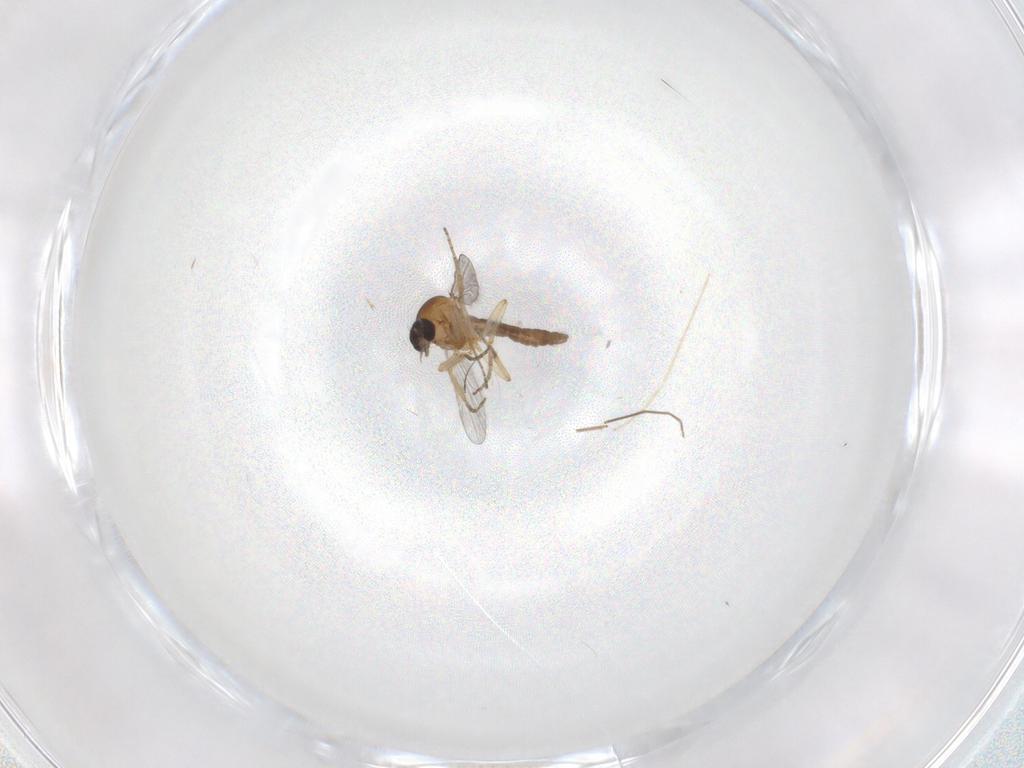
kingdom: Animalia
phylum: Arthropoda
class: Insecta
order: Diptera
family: Chironomidae
